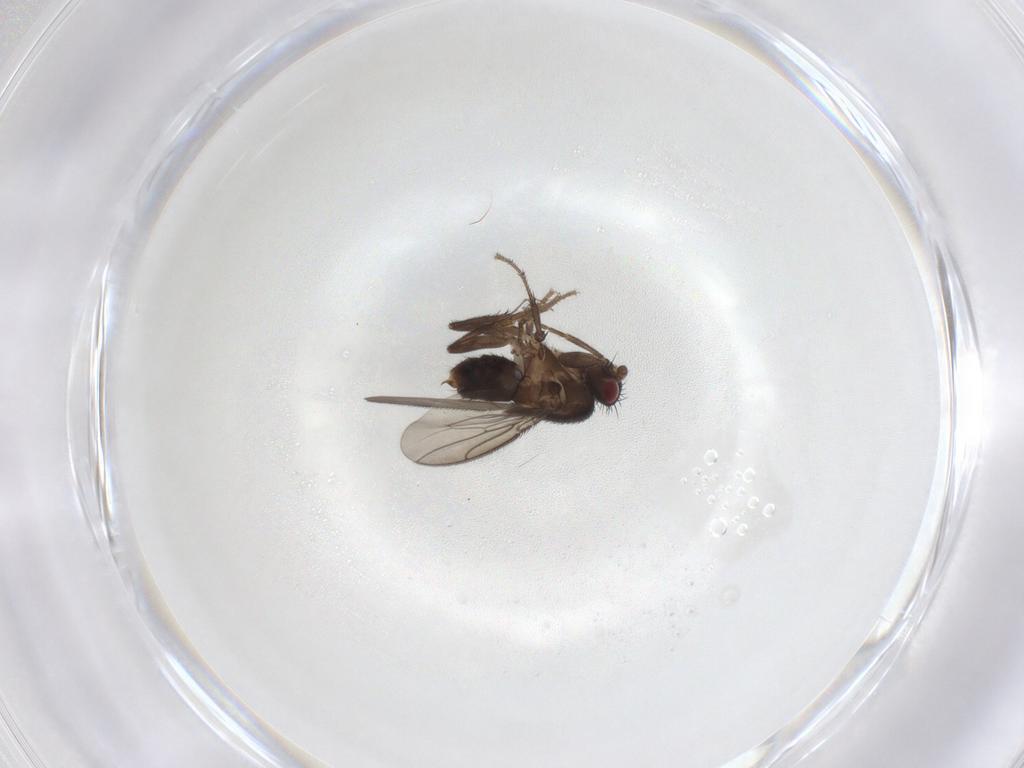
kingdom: Animalia
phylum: Arthropoda
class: Insecta
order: Diptera
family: Sphaeroceridae
